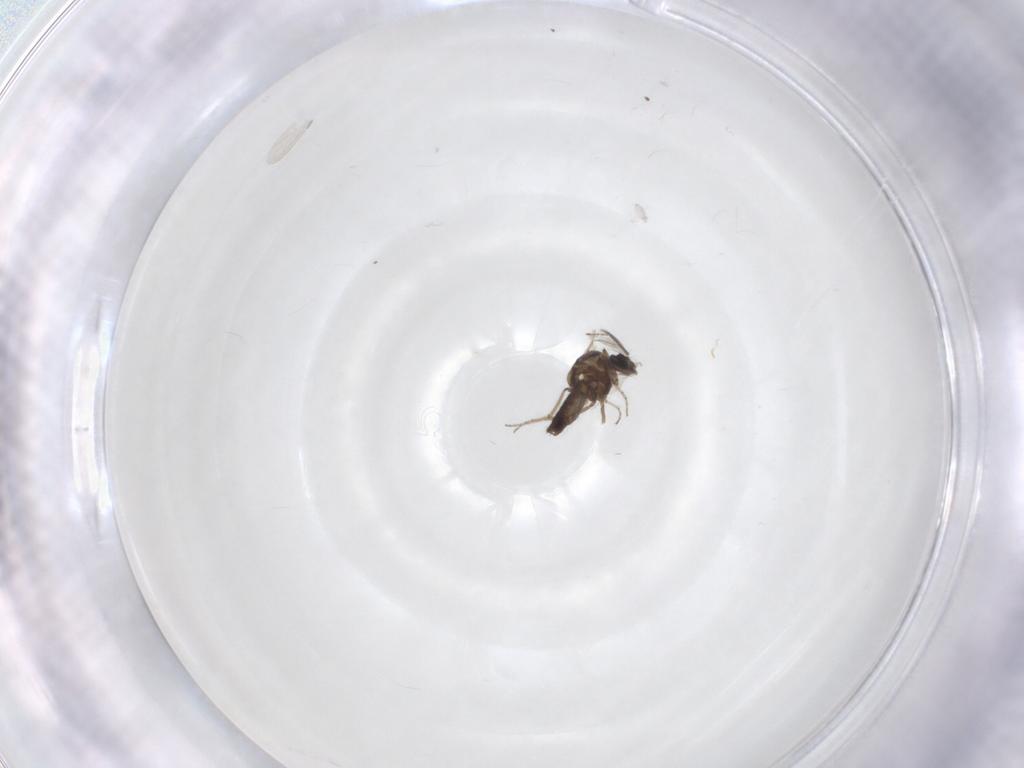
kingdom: Animalia
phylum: Arthropoda
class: Insecta
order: Diptera
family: Ceratopogonidae
